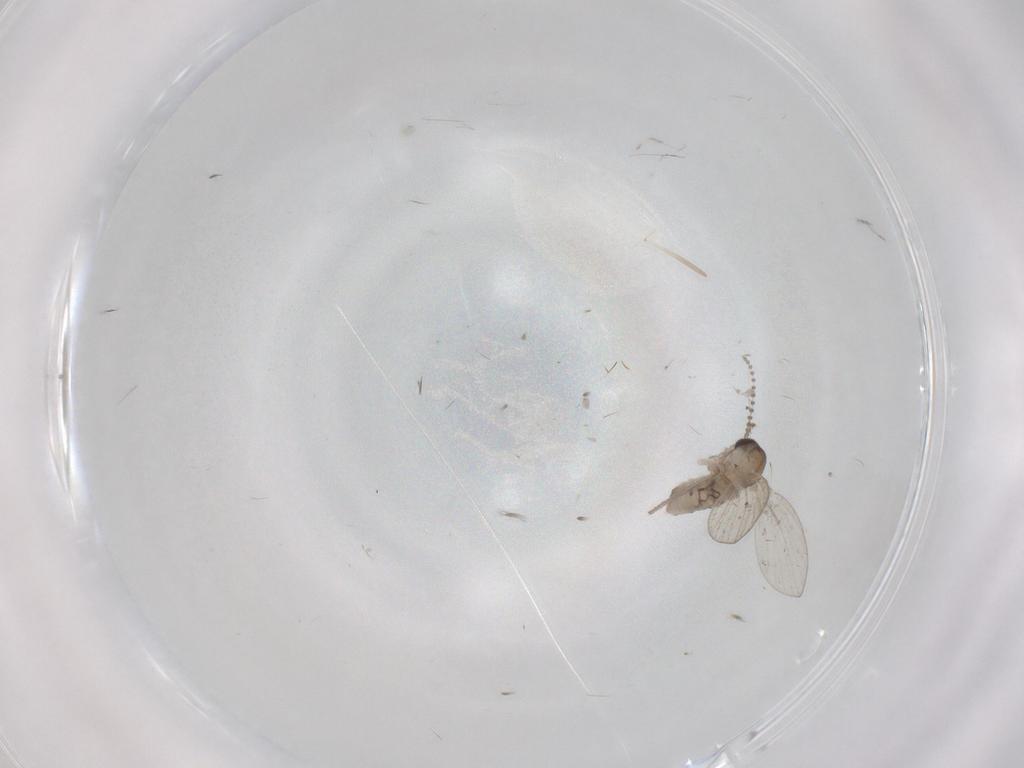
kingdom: Animalia
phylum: Arthropoda
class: Insecta
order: Diptera
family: Psychodidae
